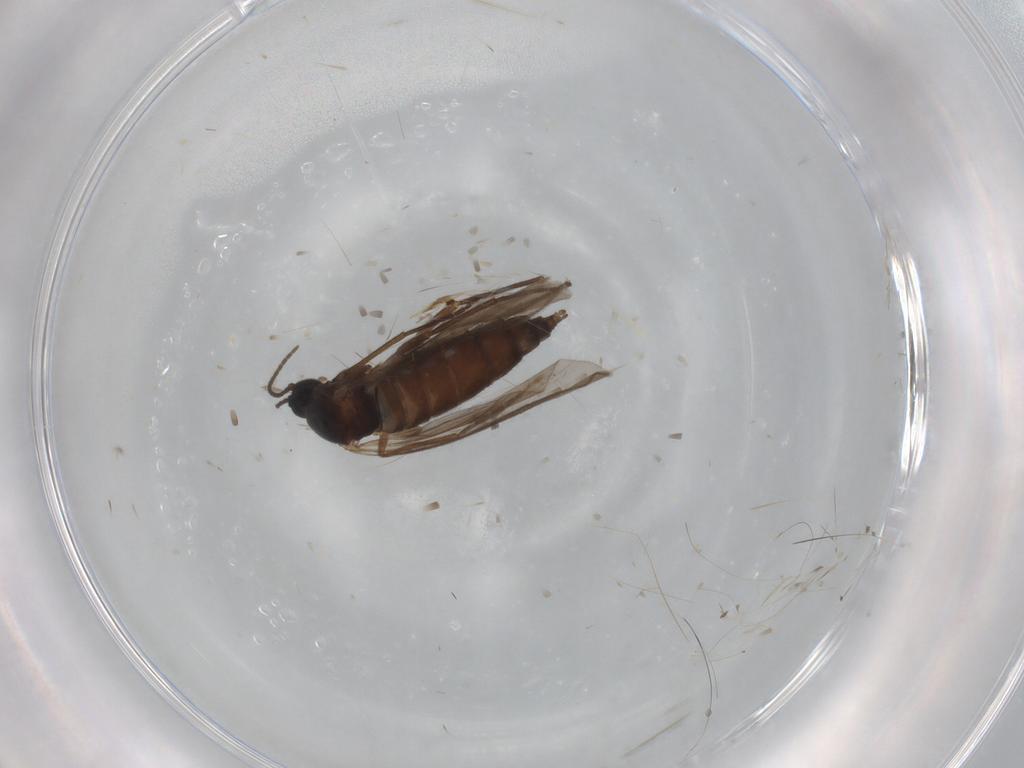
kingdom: Animalia
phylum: Arthropoda
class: Insecta
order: Diptera
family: Sciaridae
